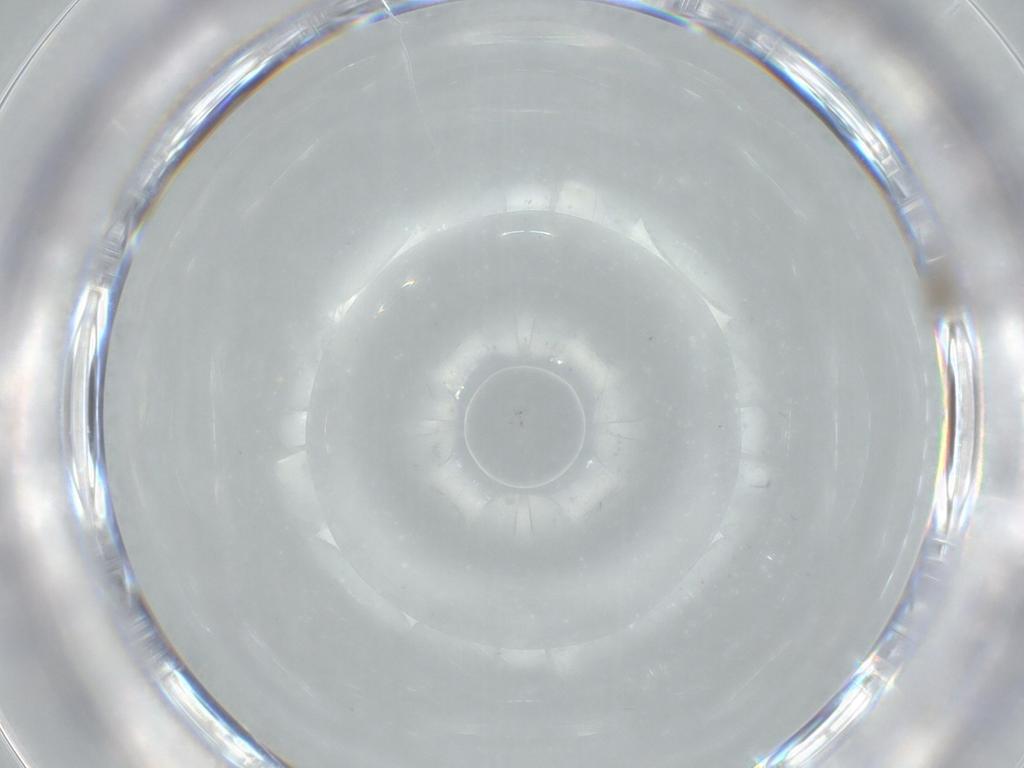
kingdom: Animalia
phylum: Arthropoda
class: Insecta
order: Diptera
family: Cecidomyiidae
